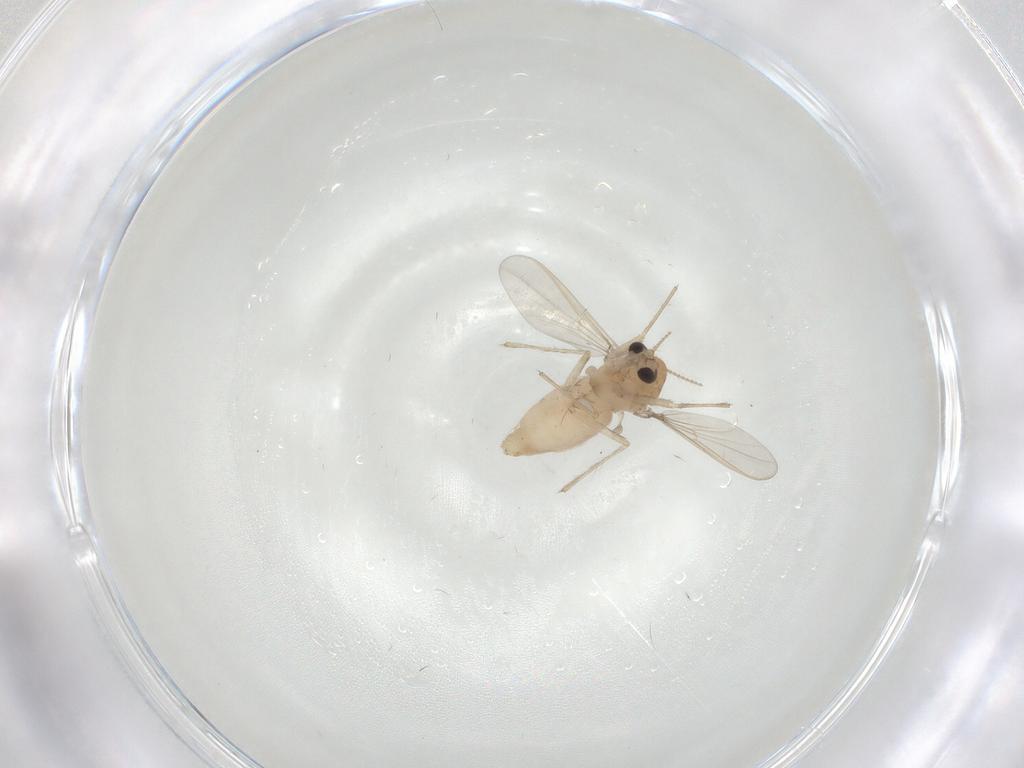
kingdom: Animalia
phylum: Arthropoda
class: Insecta
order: Diptera
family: Chironomidae
